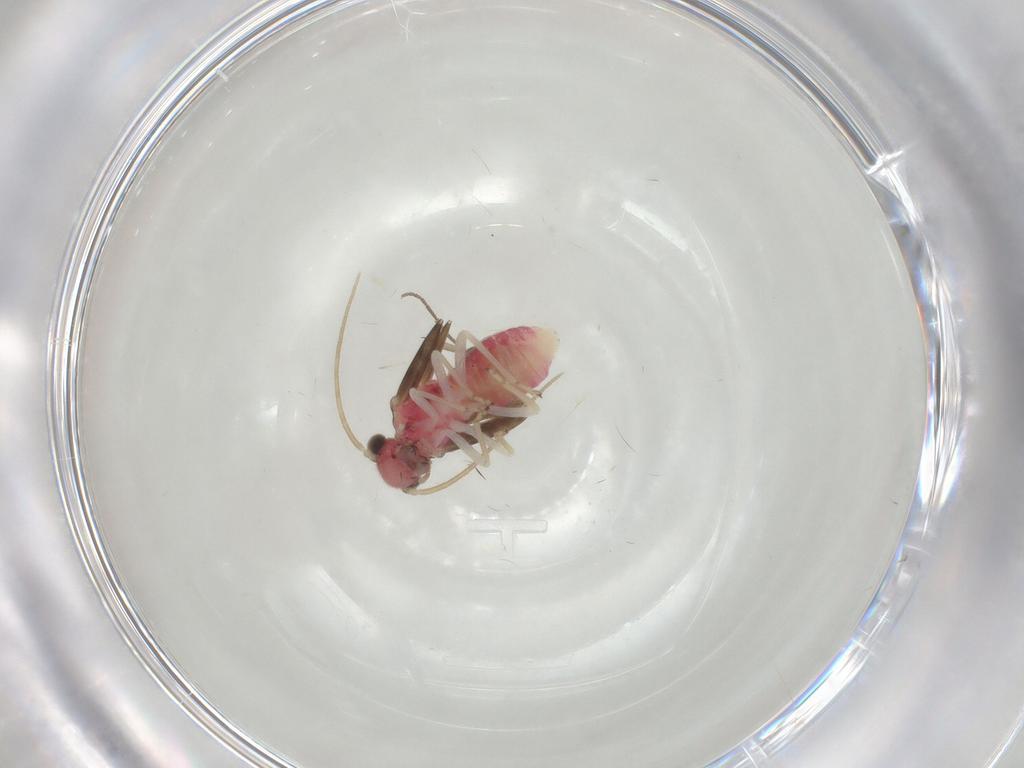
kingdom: Animalia
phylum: Arthropoda
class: Insecta
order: Psocodea
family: Caeciliusidae
